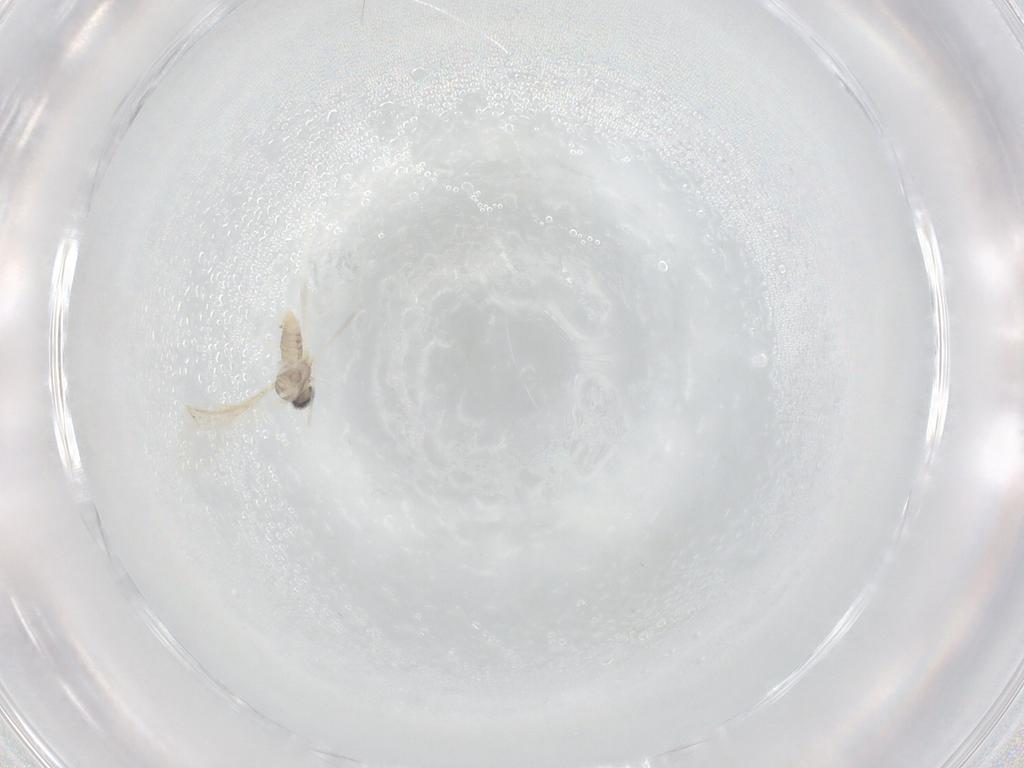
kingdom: Animalia
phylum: Arthropoda
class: Insecta
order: Diptera
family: Cecidomyiidae
